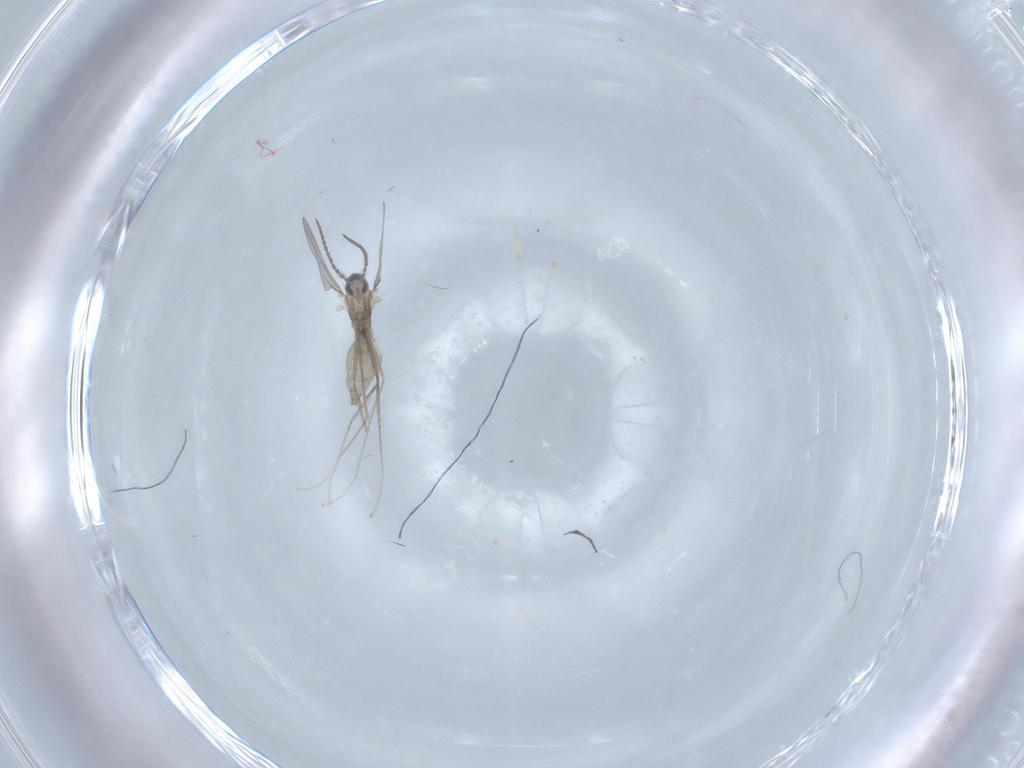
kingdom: Animalia
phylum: Arthropoda
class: Insecta
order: Diptera
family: Cecidomyiidae
